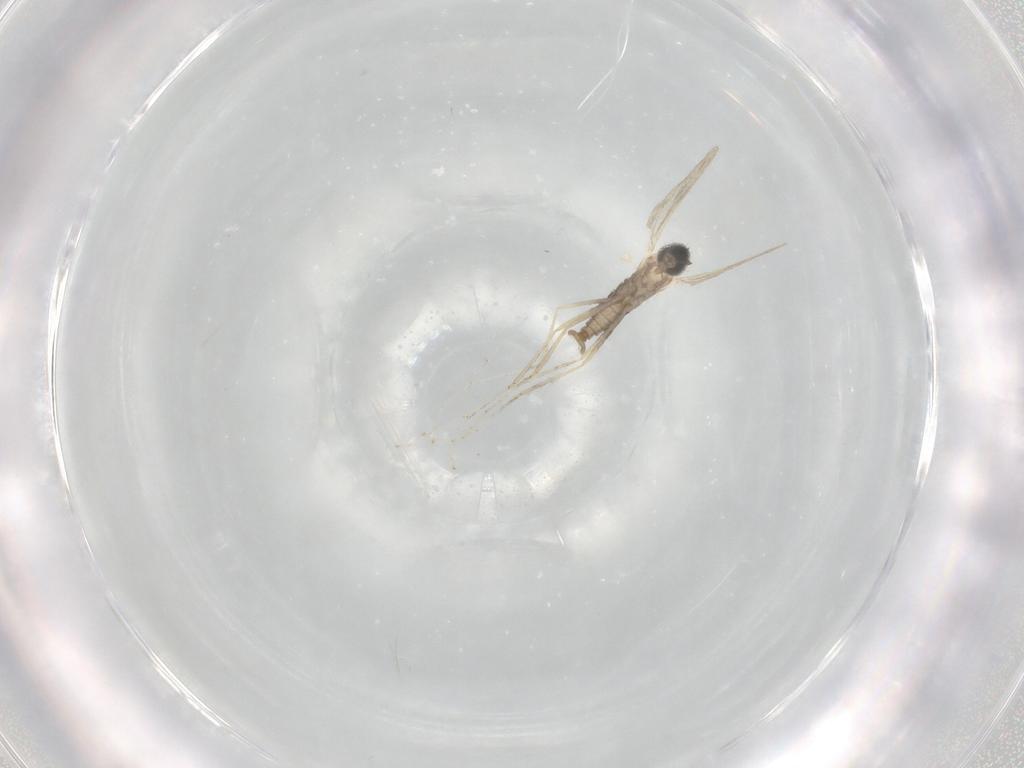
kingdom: Animalia
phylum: Arthropoda
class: Insecta
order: Diptera
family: Cecidomyiidae
